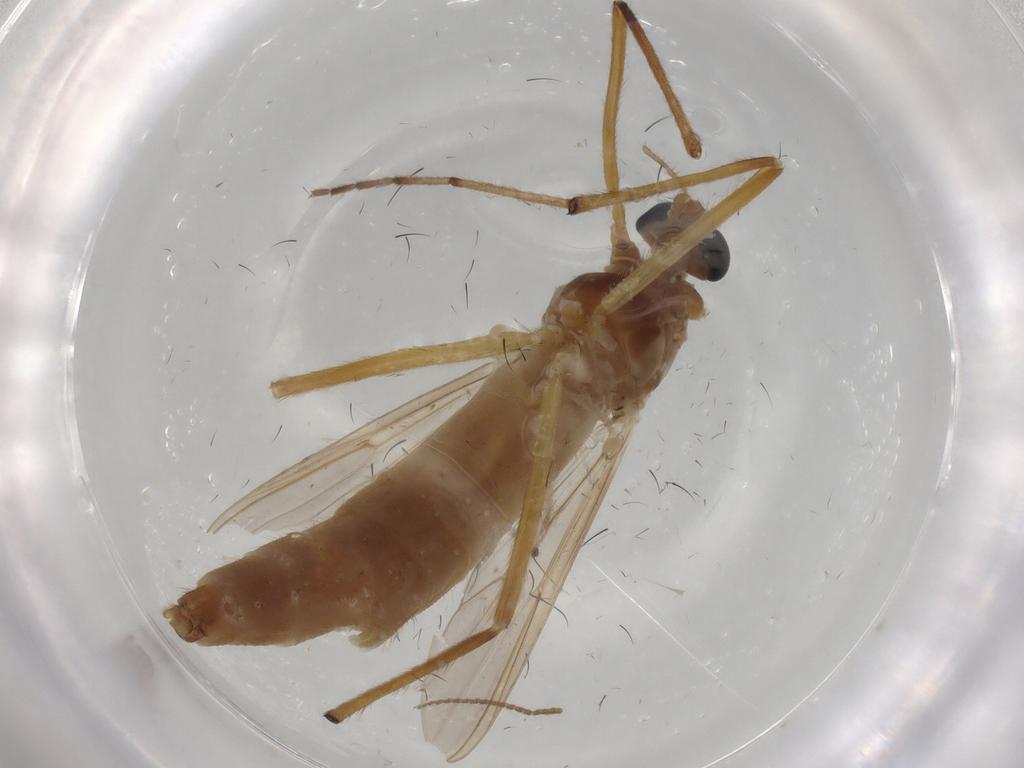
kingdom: Animalia
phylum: Arthropoda
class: Insecta
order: Diptera
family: Dolichopodidae
